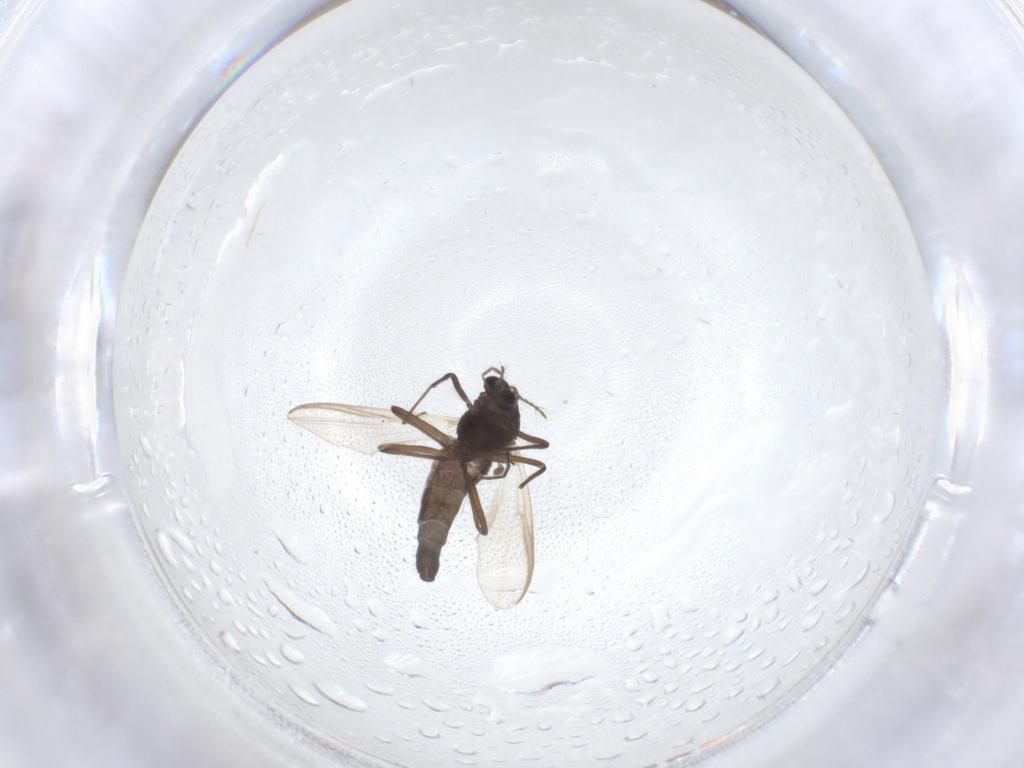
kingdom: Animalia
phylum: Arthropoda
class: Insecta
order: Diptera
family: Chironomidae
